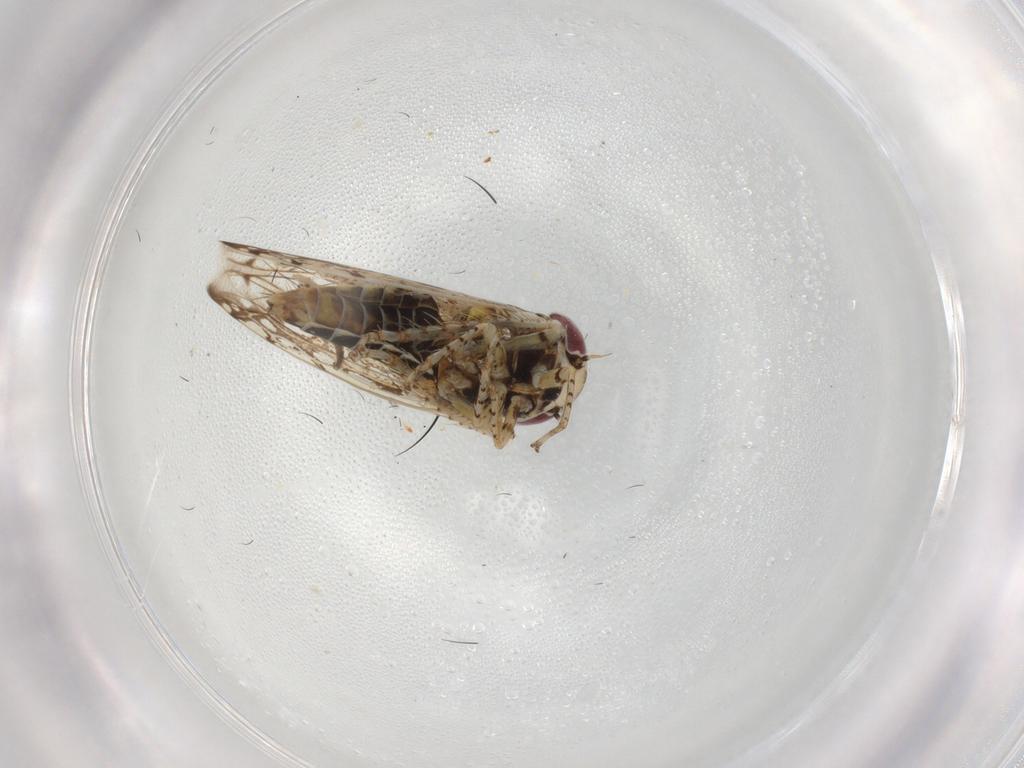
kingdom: Animalia
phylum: Arthropoda
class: Insecta
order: Hemiptera
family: Cicadellidae
